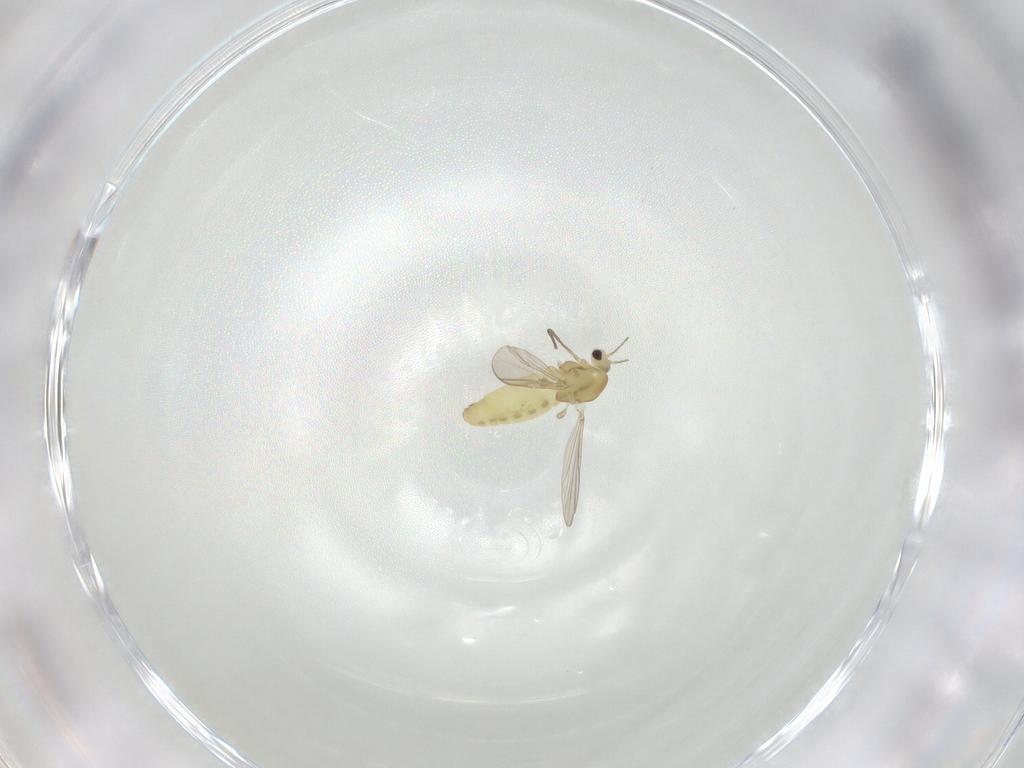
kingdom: Animalia
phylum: Arthropoda
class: Insecta
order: Diptera
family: Chironomidae
